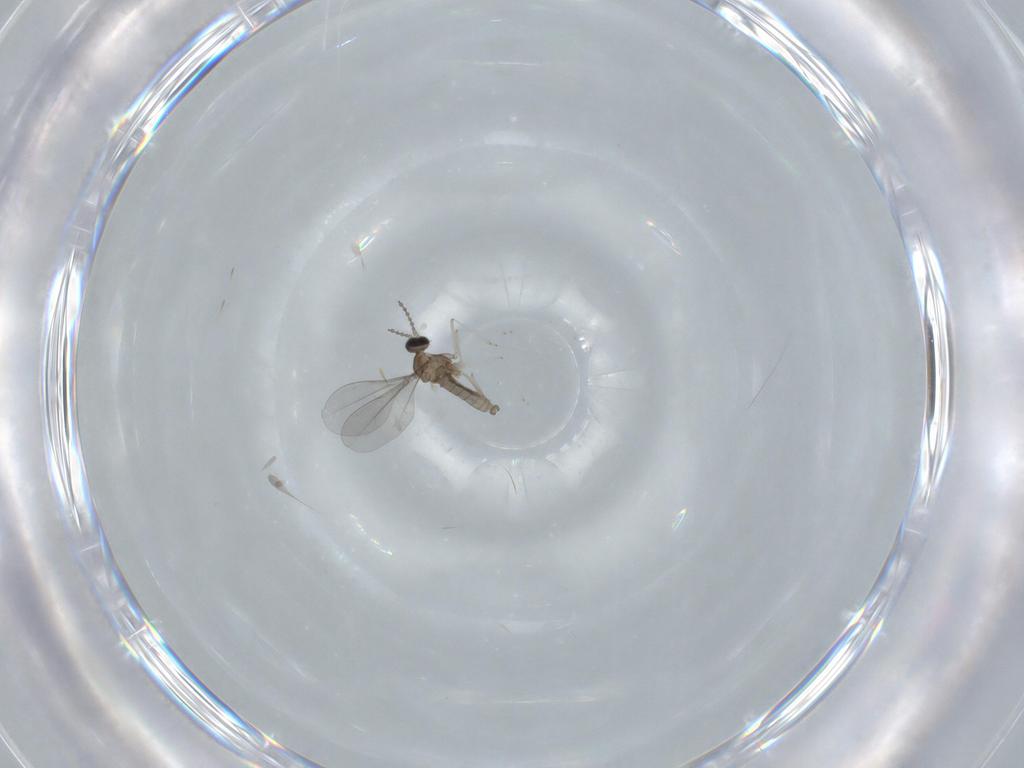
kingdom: Animalia
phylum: Arthropoda
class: Insecta
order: Diptera
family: Cecidomyiidae
